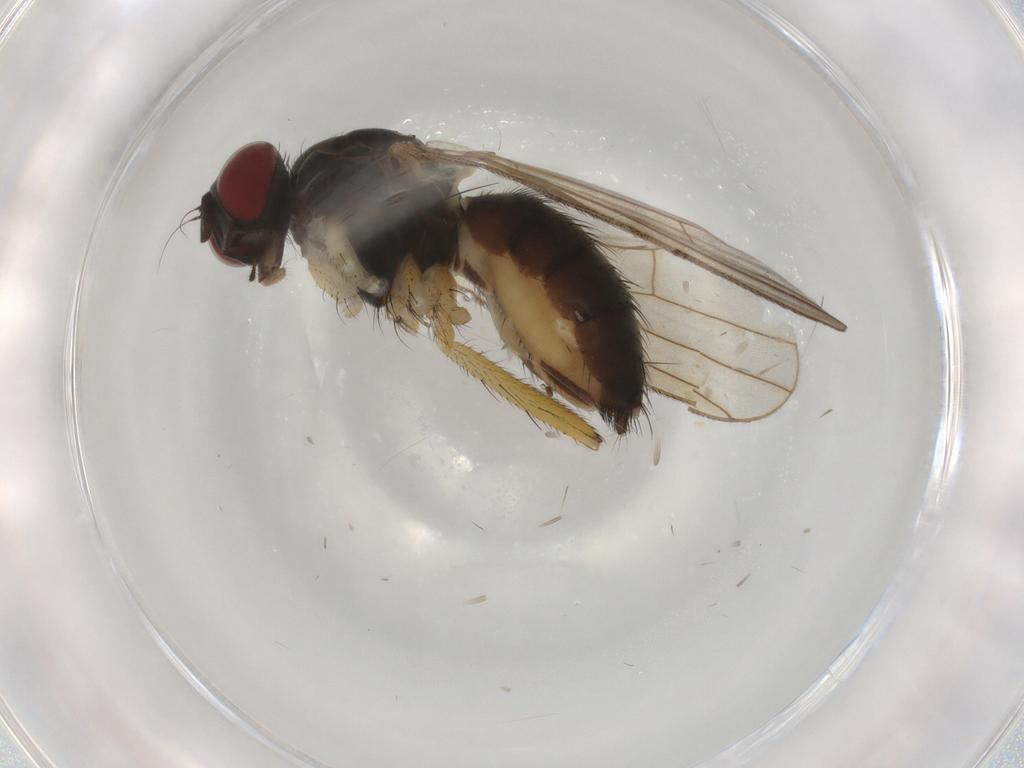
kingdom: Animalia
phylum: Arthropoda
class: Insecta
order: Diptera
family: Muscidae
